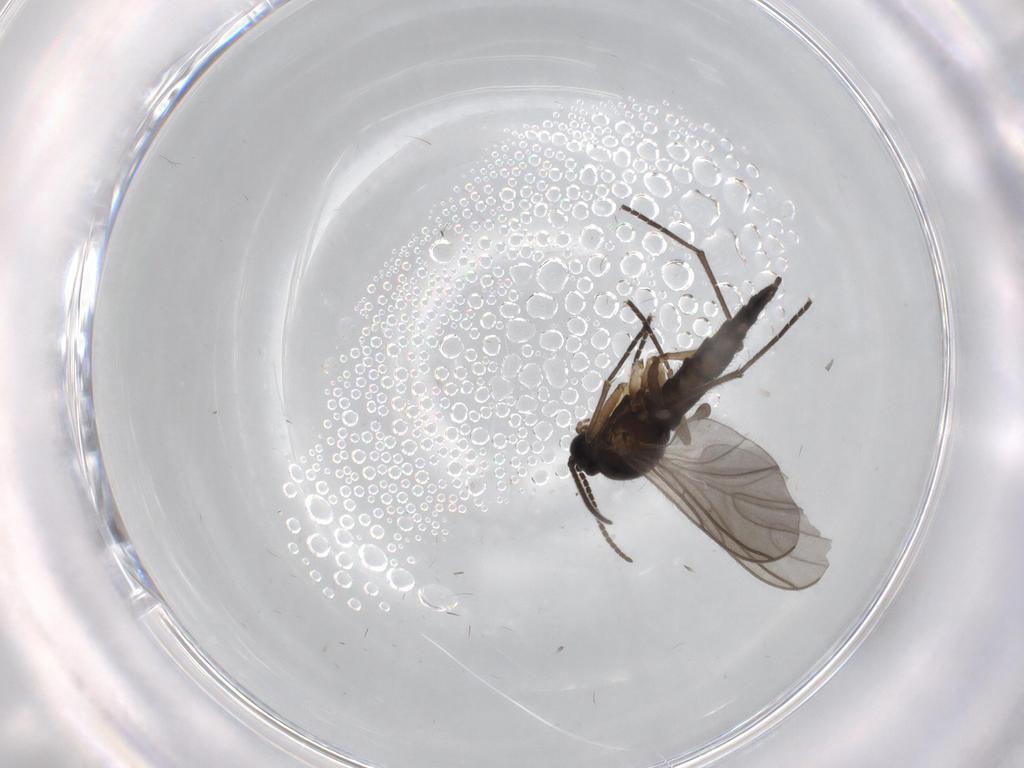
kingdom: Animalia
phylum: Arthropoda
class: Insecta
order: Diptera
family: Sciaridae
